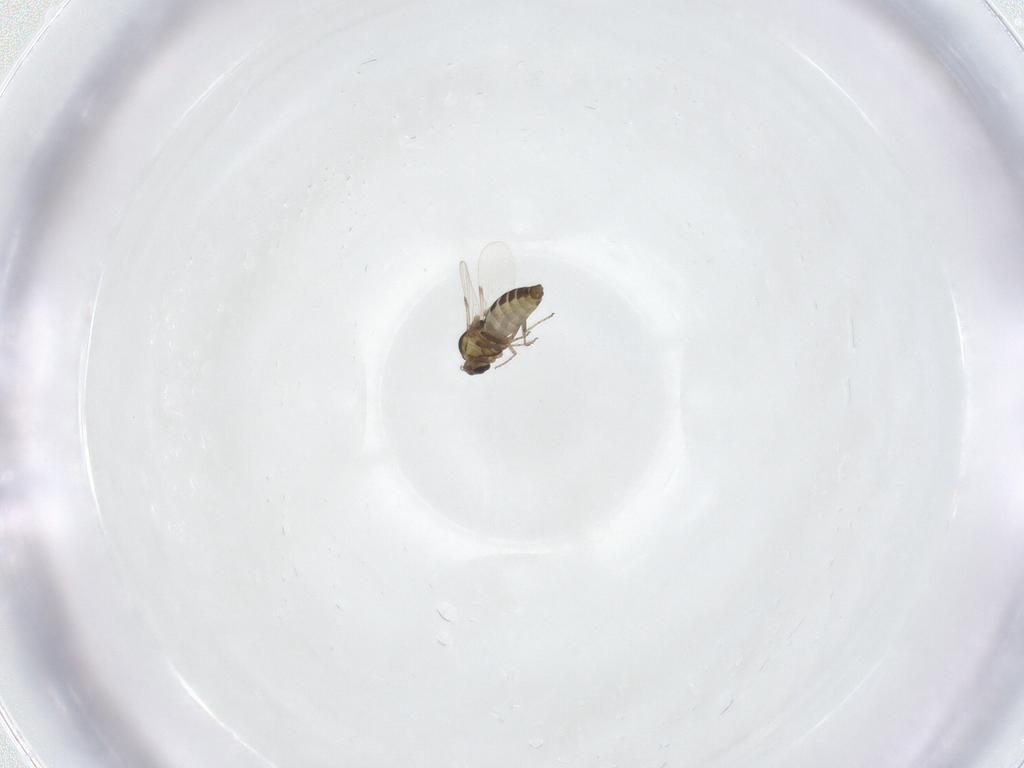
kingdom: Animalia
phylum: Arthropoda
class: Insecta
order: Diptera
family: Ceratopogonidae
